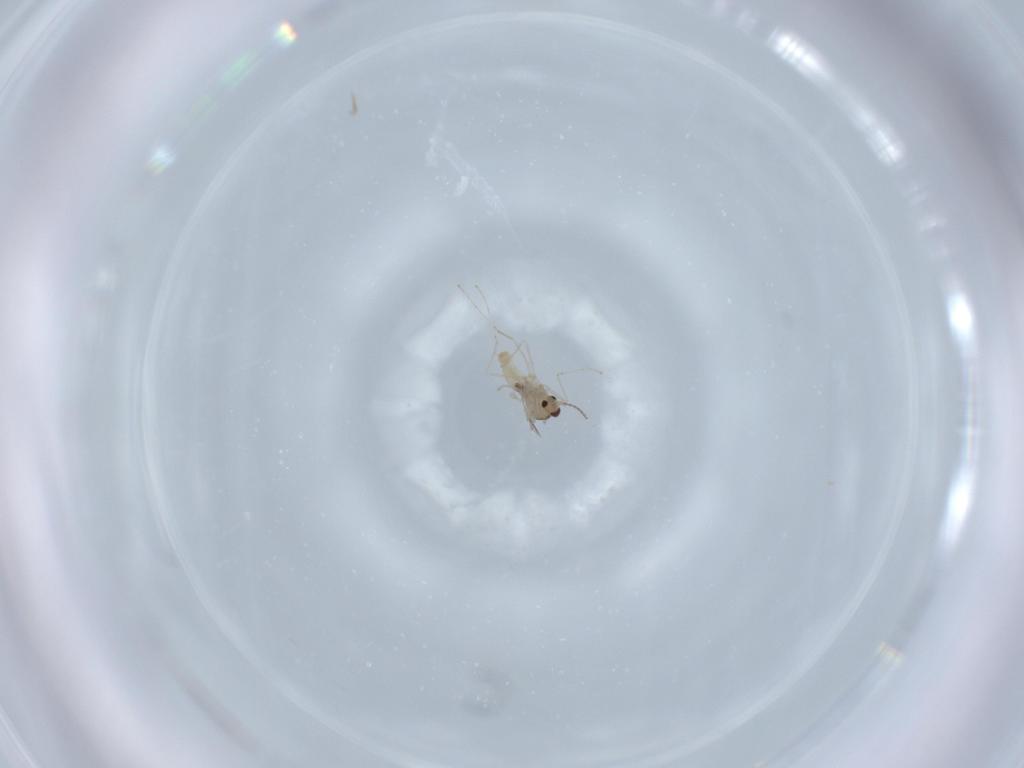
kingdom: Animalia
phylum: Arthropoda
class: Insecta
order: Diptera
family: Cecidomyiidae
